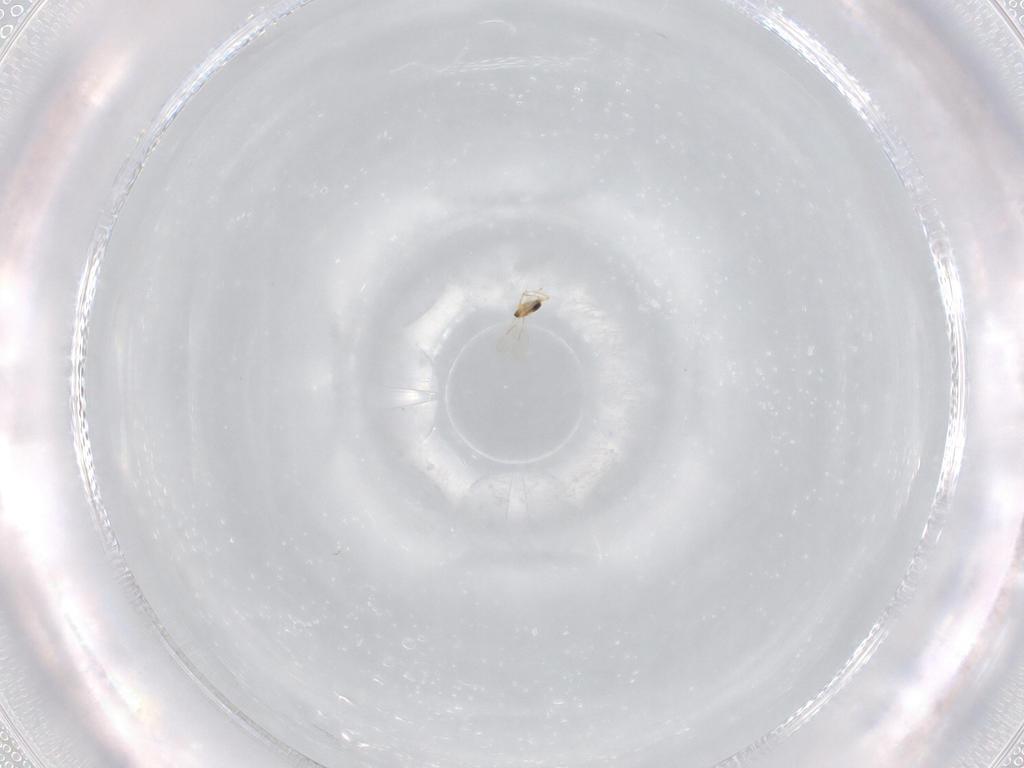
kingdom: Animalia
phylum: Arthropoda
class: Insecta
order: Hymenoptera
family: Aphelinidae
